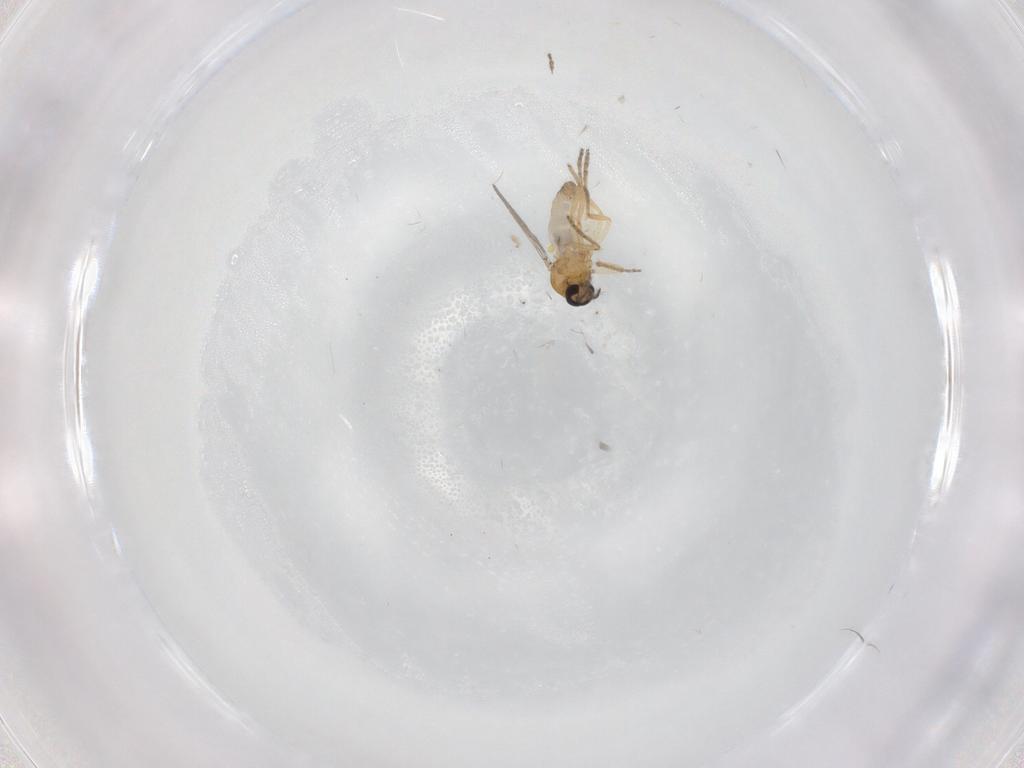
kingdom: Animalia
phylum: Arthropoda
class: Insecta
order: Diptera
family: Ceratopogonidae
